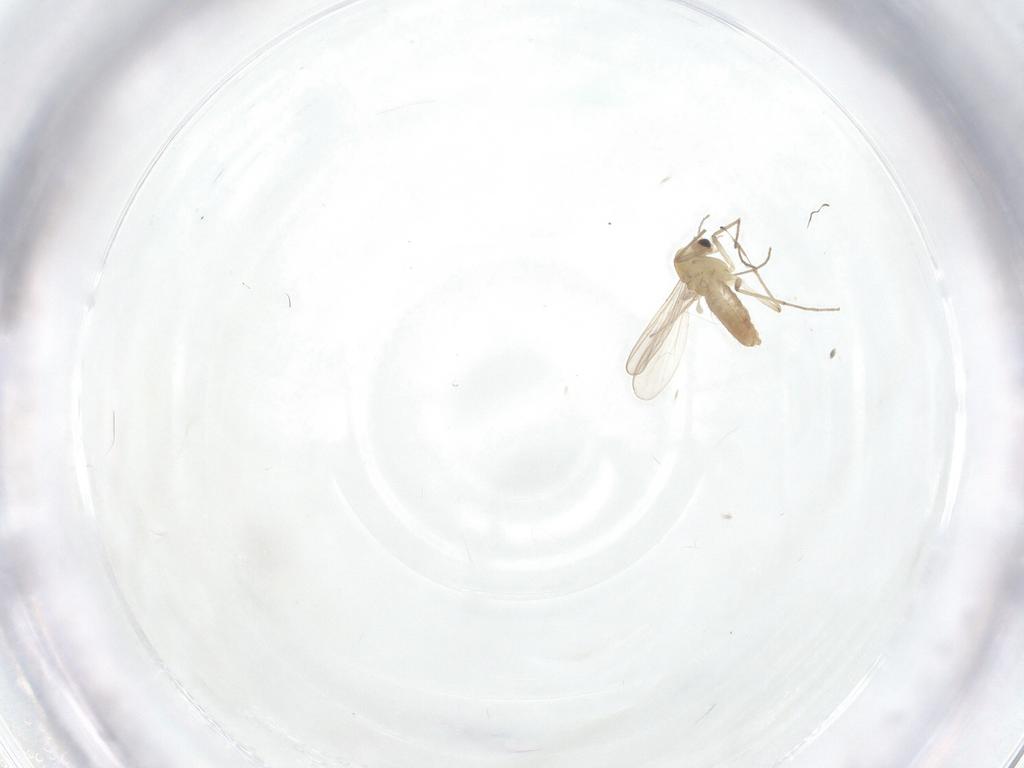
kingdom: Animalia
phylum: Arthropoda
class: Insecta
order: Diptera
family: Chironomidae
